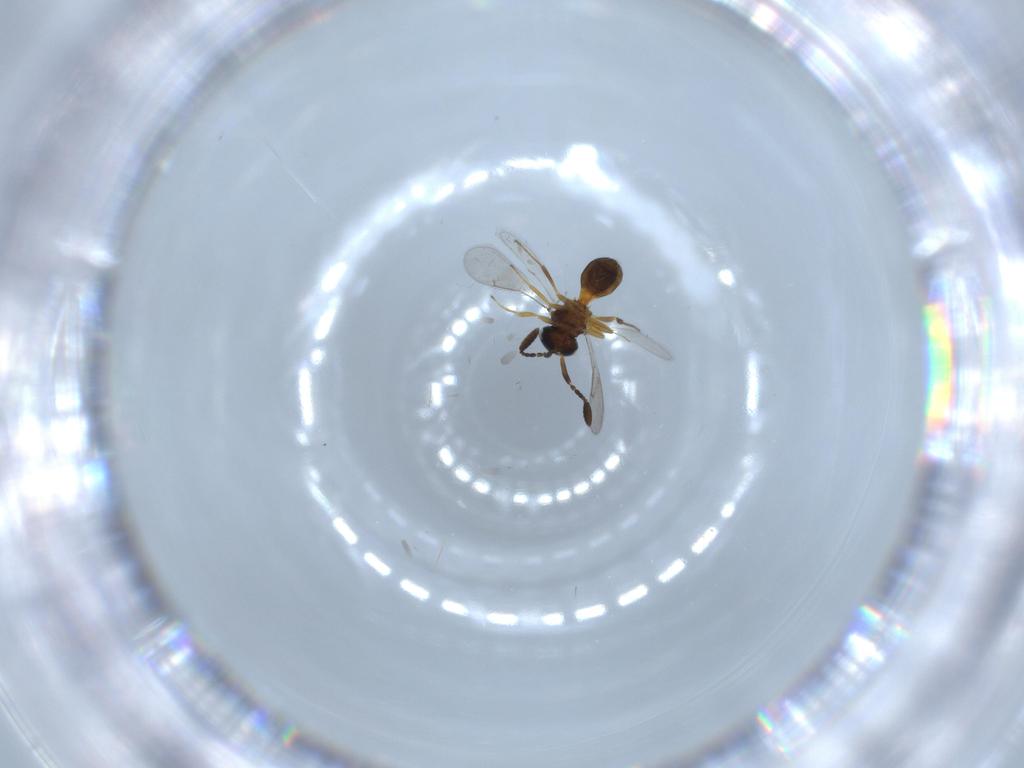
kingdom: Animalia
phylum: Arthropoda
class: Insecta
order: Hymenoptera
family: Scelionidae
